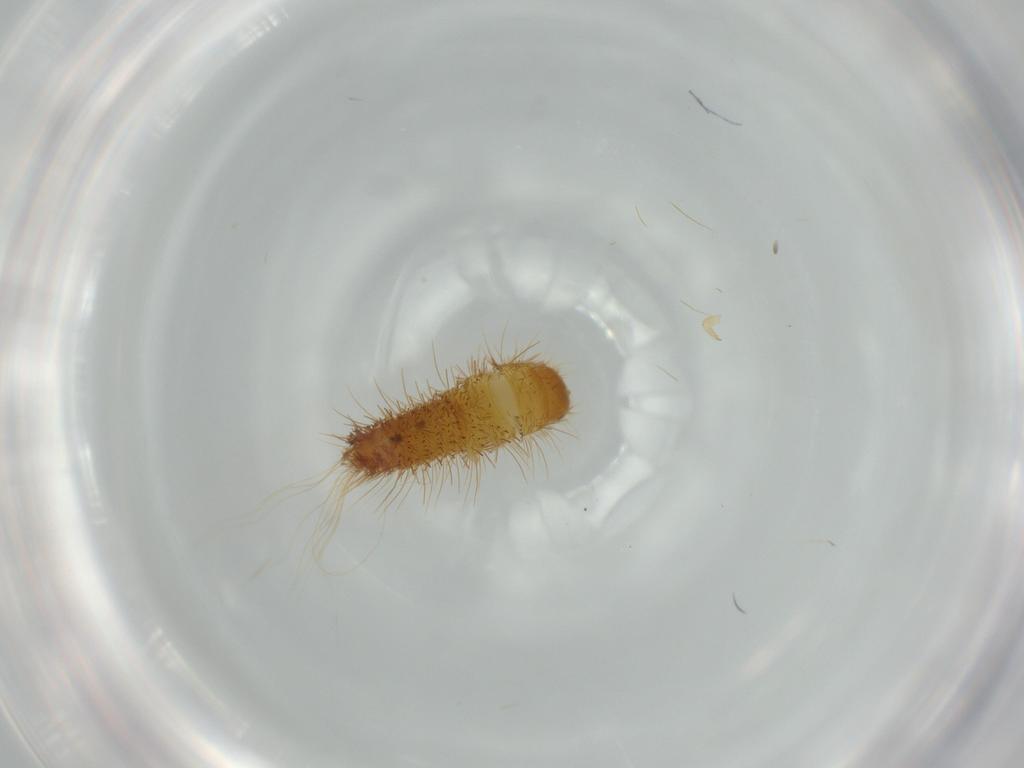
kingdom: Animalia
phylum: Arthropoda
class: Insecta
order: Coleoptera
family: Dermestidae
